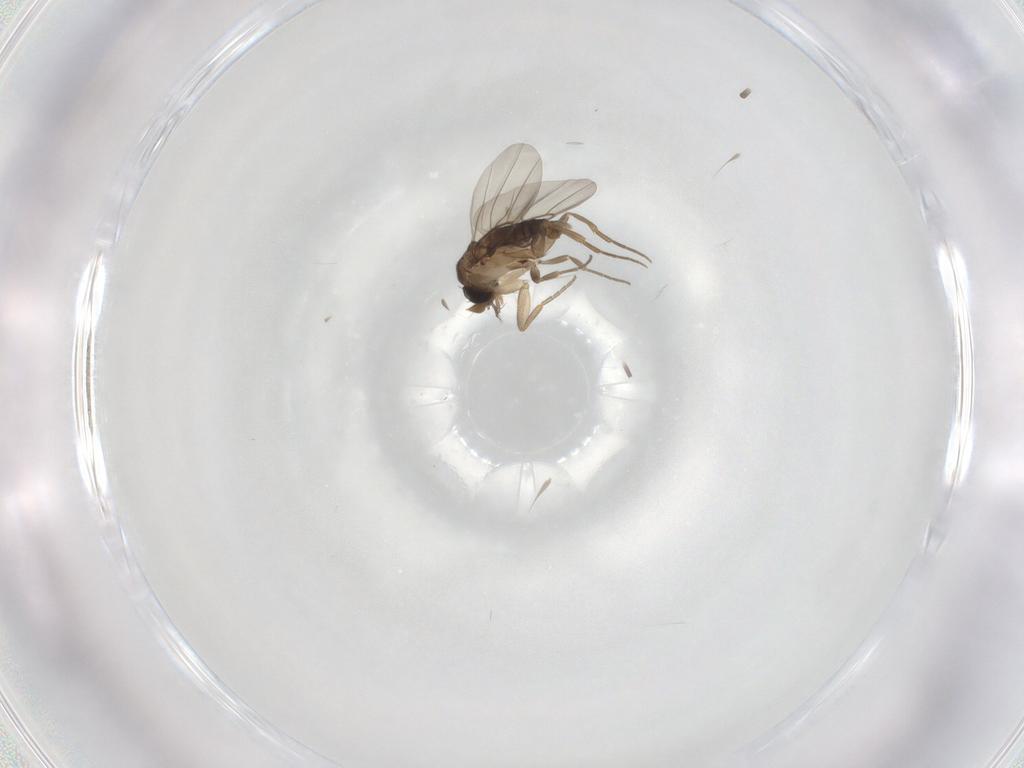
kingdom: Animalia
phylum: Arthropoda
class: Insecta
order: Diptera
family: Phoridae
